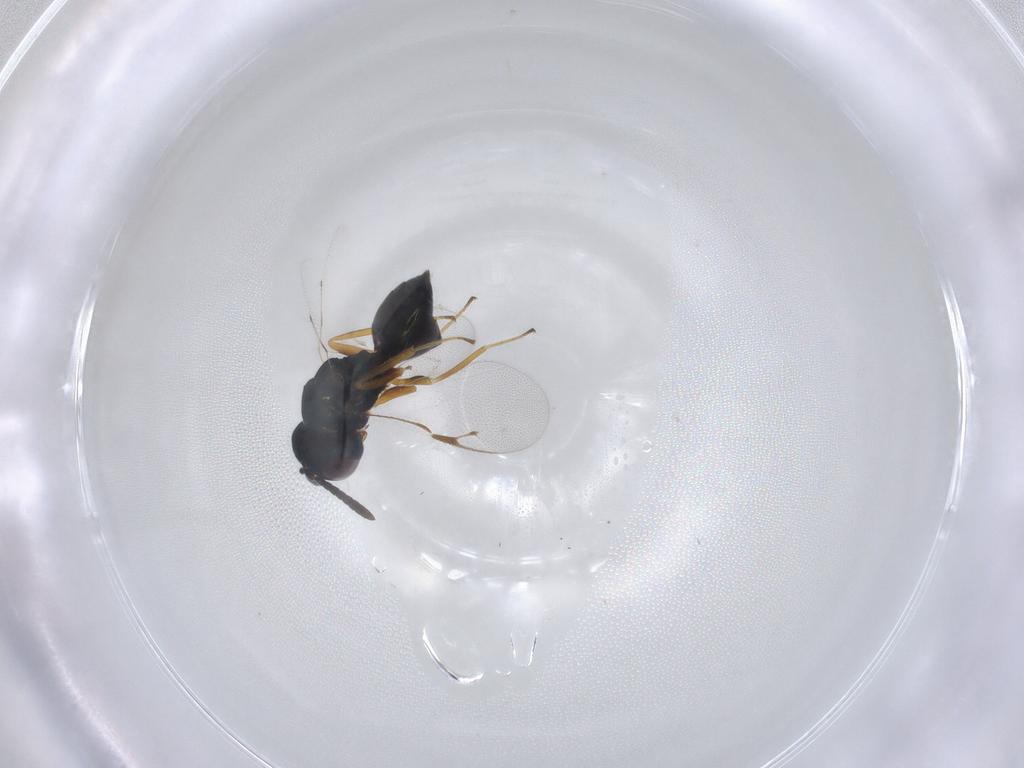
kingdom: Animalia
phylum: Arthropoda
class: Insecta
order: Hymenoptera
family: Pteromalidae
